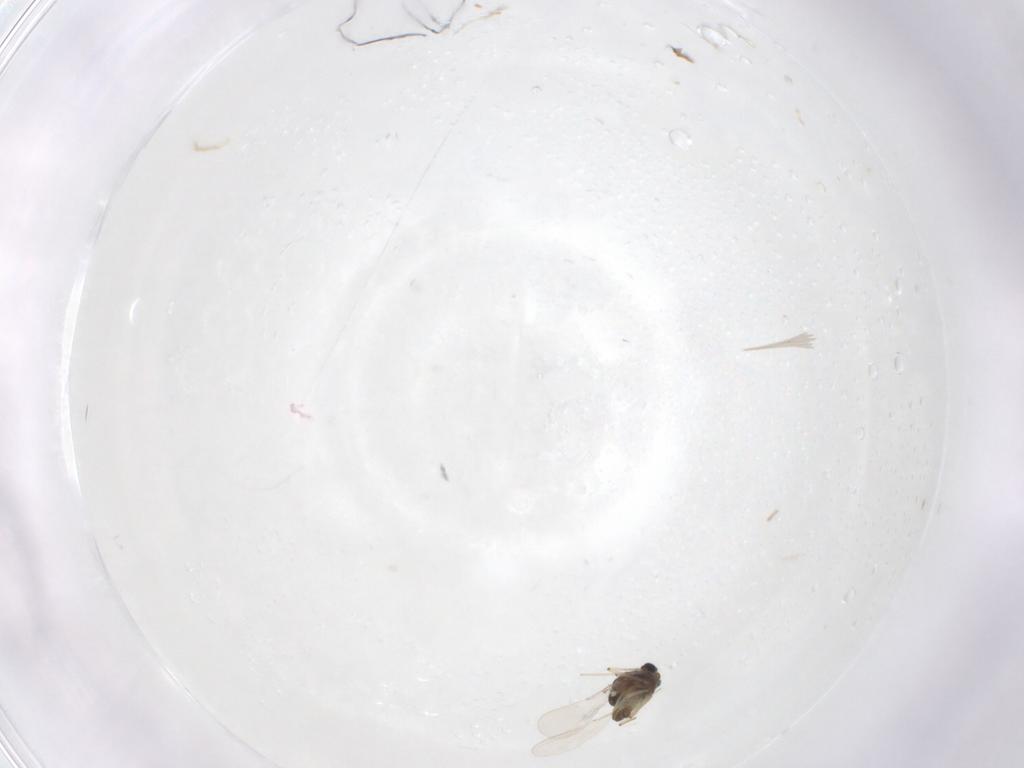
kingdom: Animalia
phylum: Arthropoda
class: Insecta
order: Diptera
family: Chironomidae
